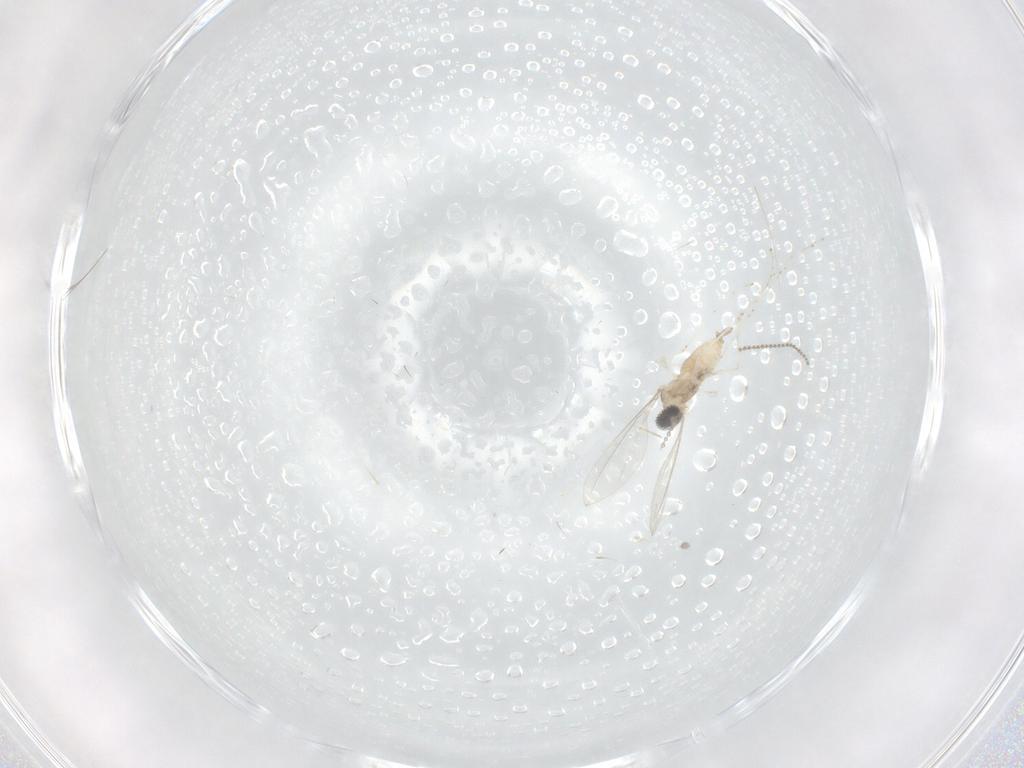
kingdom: Animalia
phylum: Arthropoda
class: Insecta
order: Diptera
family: Cecidomyiidae
